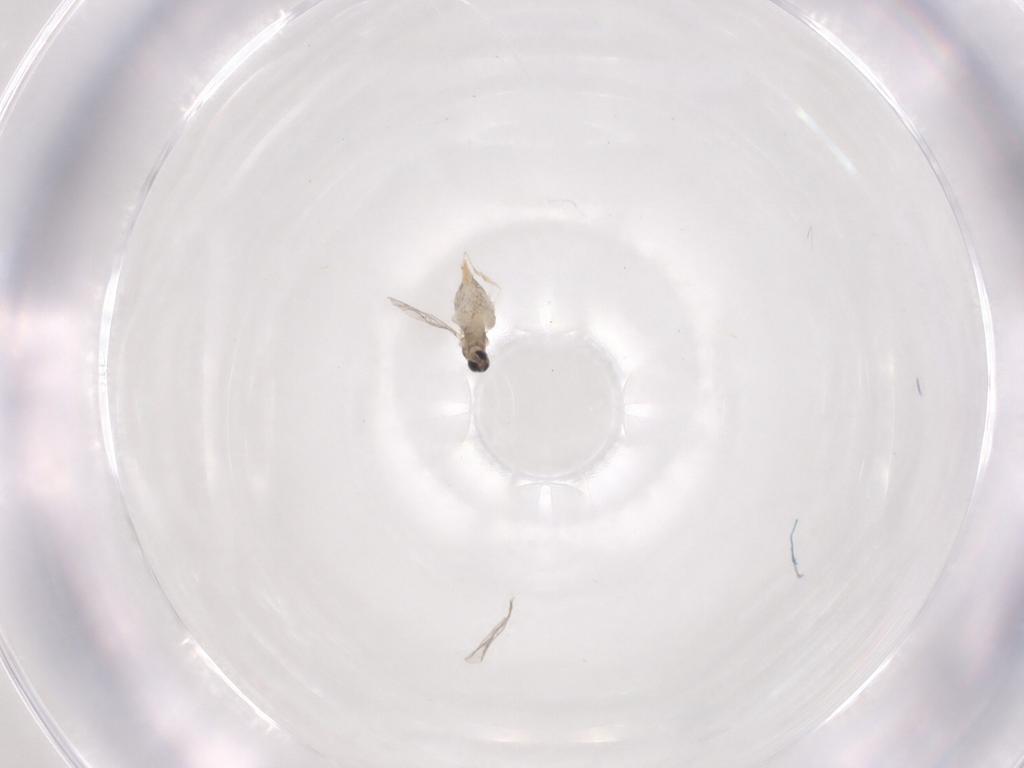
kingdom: Animalia
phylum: Arthropoda
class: Insecta
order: Diptera
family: Cecidomyiidae
